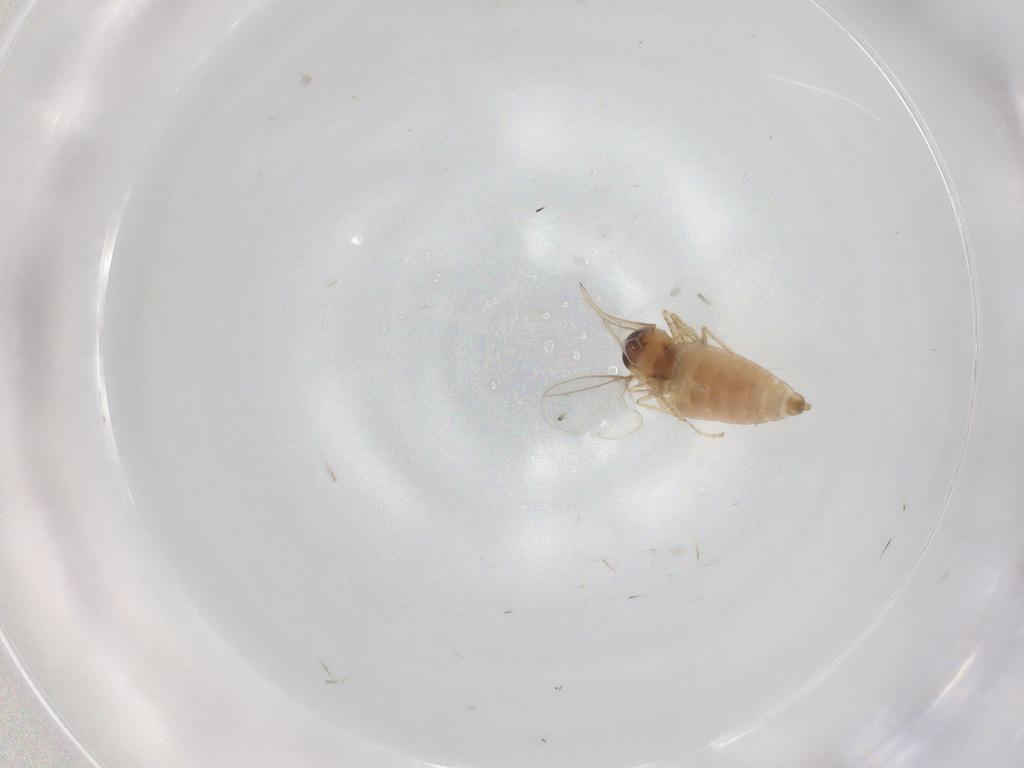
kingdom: Animalia
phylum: Arthropoda
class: Insecta
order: Diptera
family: Cecidomyiidae
